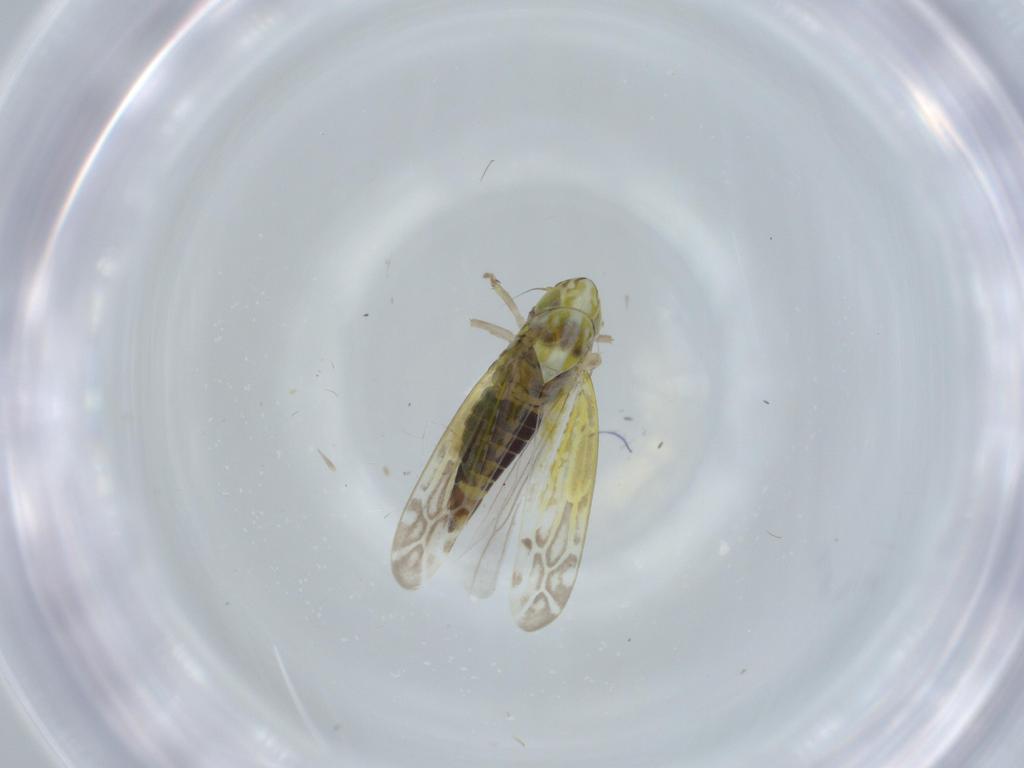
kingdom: Animalia
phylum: Arthropoda
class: Insecta
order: Hemiptera
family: Cicadellidae
